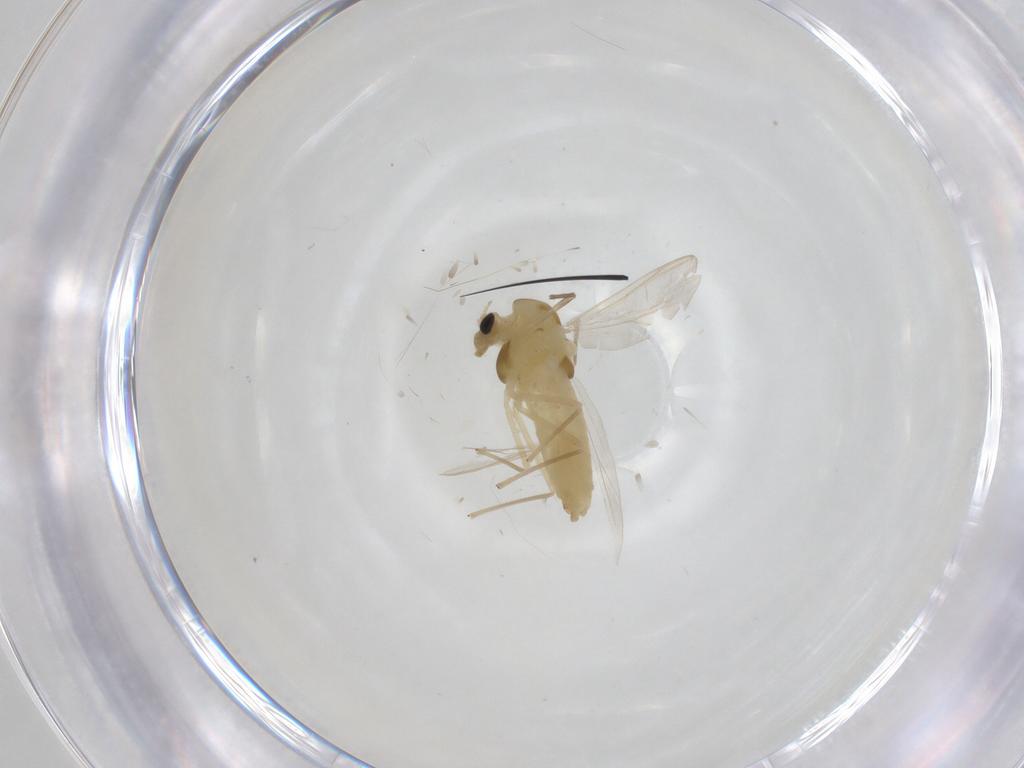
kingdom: Animalia
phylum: Arthropoda
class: Insecta
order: Diptera
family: Chironomidae
